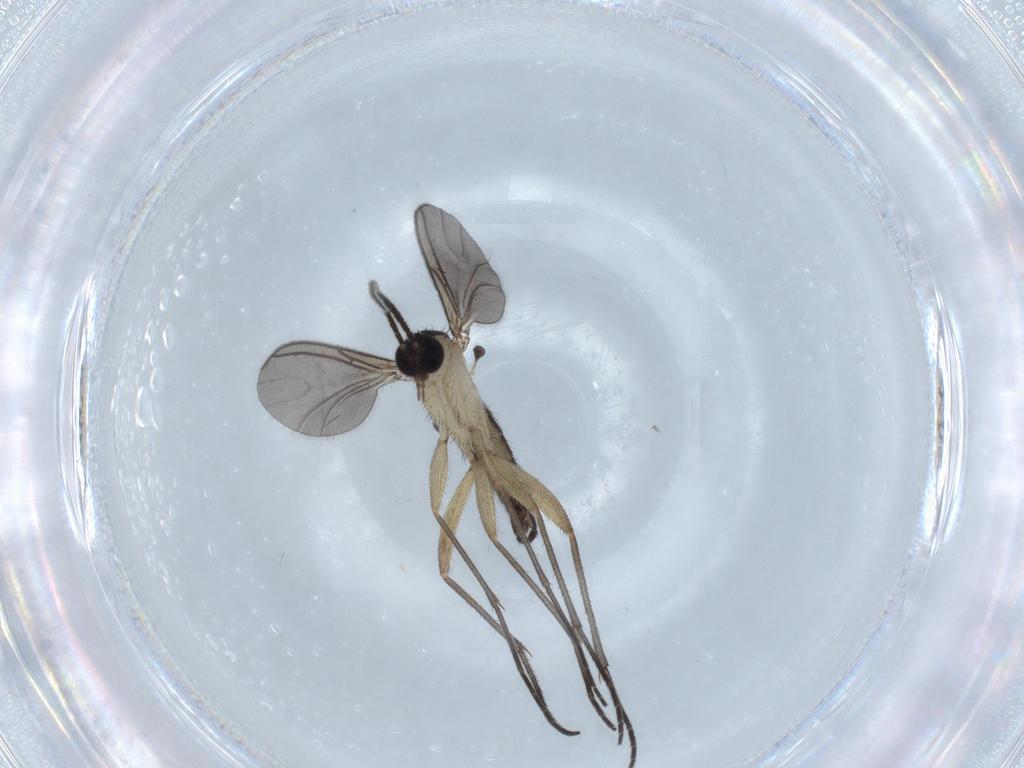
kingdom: Animalia
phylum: Arthropoda
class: Insecta
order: Diptera
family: Sciaridae
